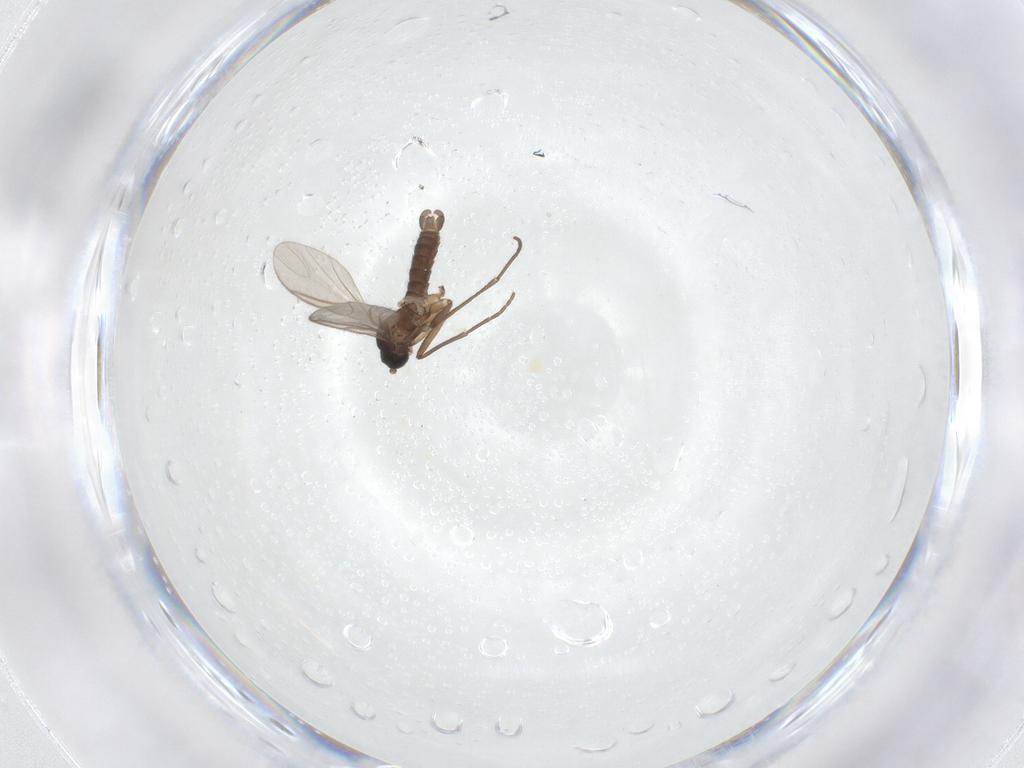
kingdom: Animalia
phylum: Arthropoda
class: Insecta
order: Diptera
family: Sciaridae
